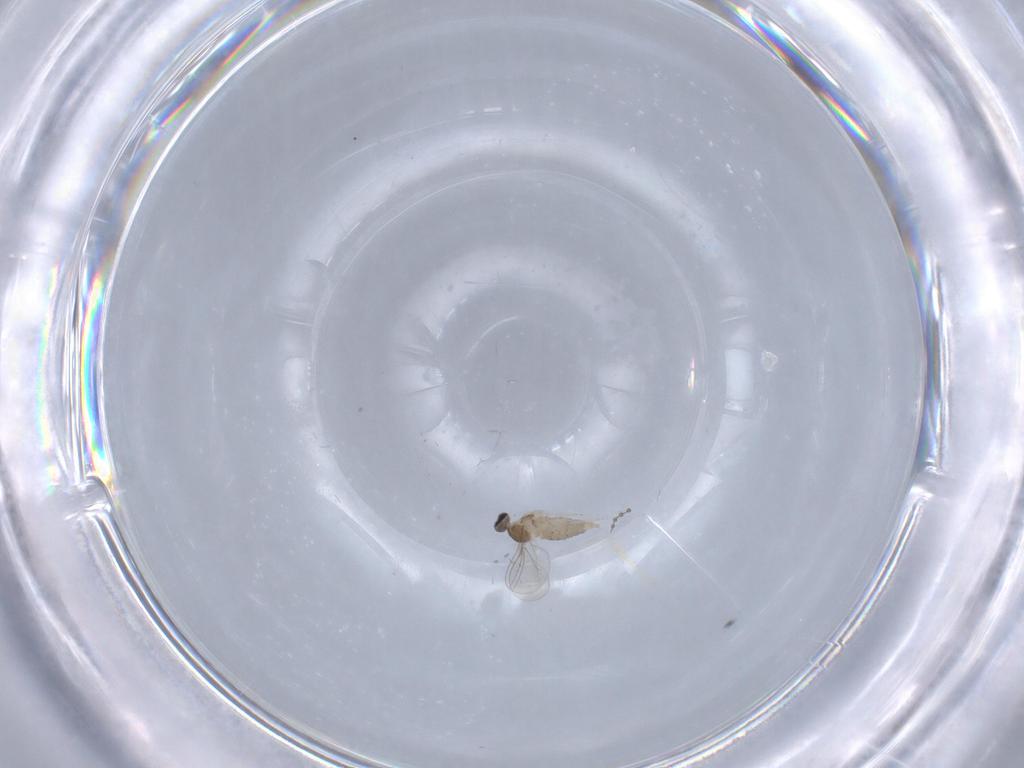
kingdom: Animalia
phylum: Arthropoda
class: Insecta
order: Diptera
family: Cecidomyiidae
